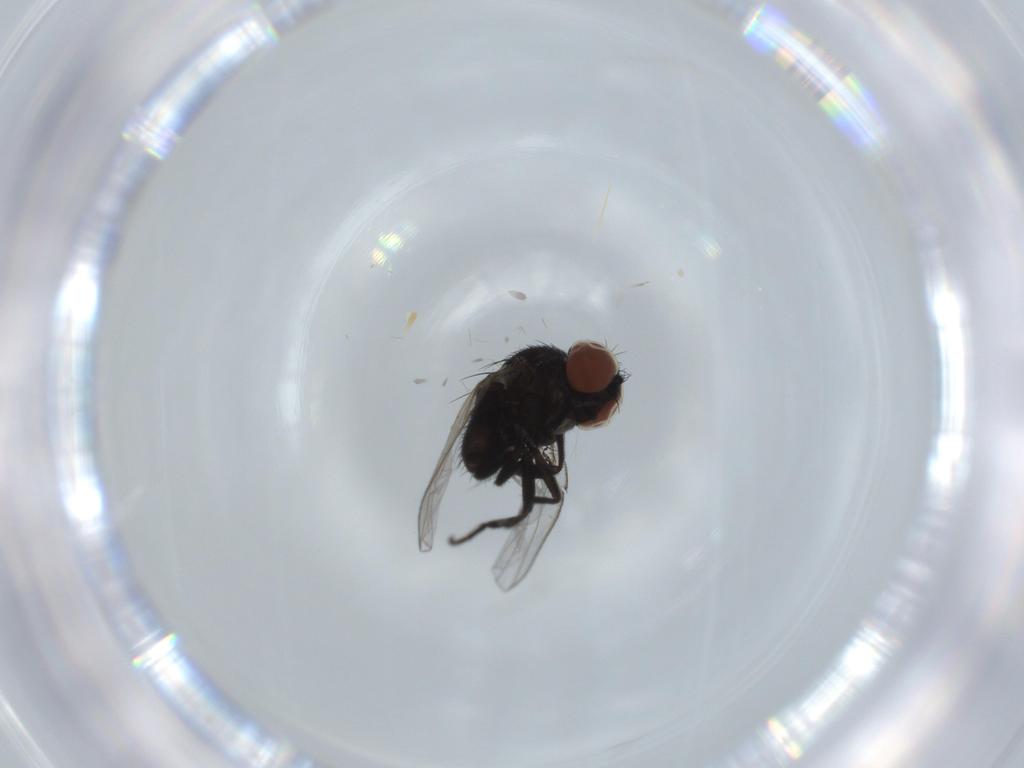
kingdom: Animalia
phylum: Arthropoda
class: Insecta
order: Diptera
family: Milichiidae
